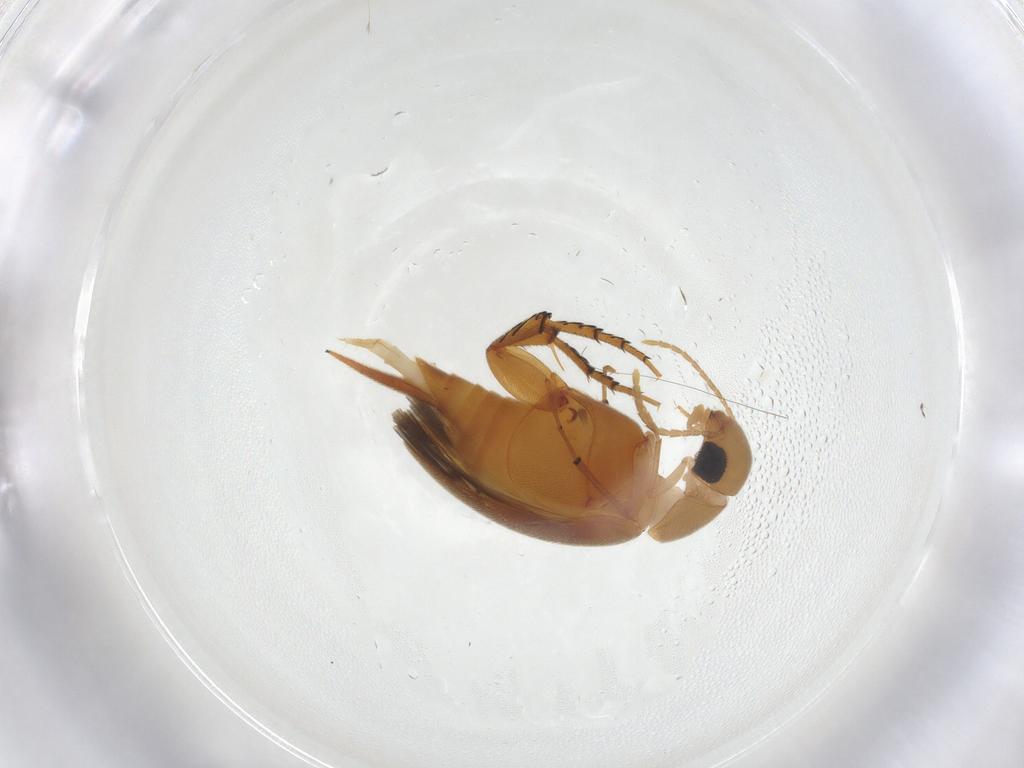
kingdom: Animalia
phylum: Arthropoda
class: Insecta
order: Coleoptera
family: Mordellidae
